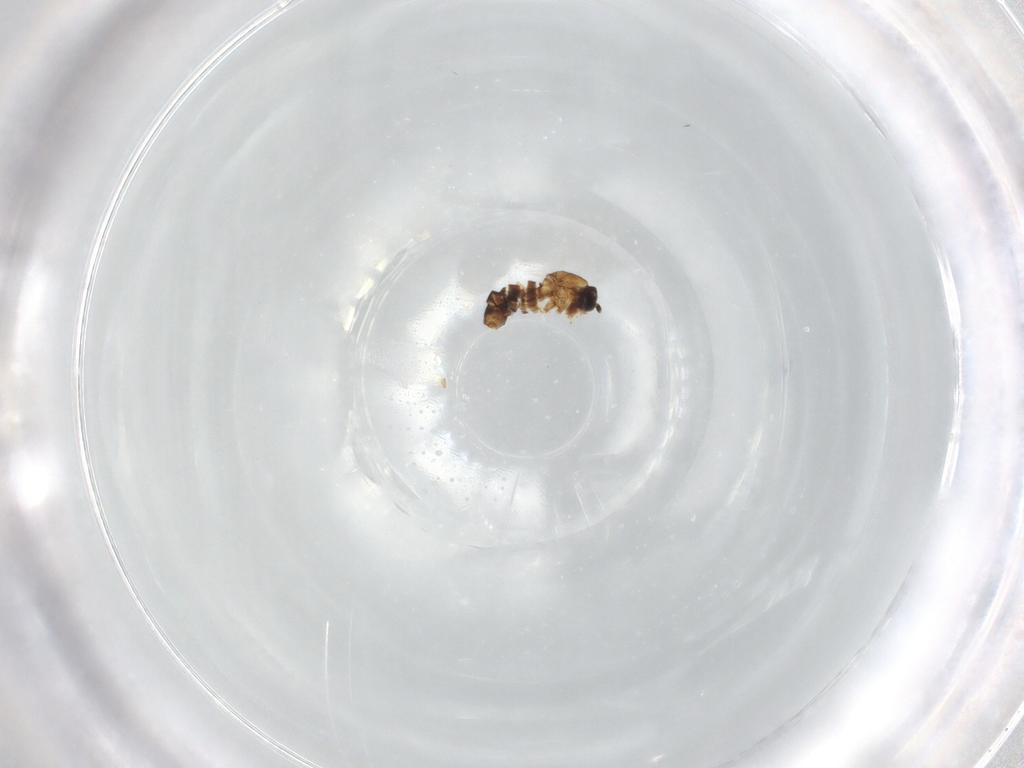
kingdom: Animalia
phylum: Arthropoda
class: Insecta
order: Diptera
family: Scatopsidae
